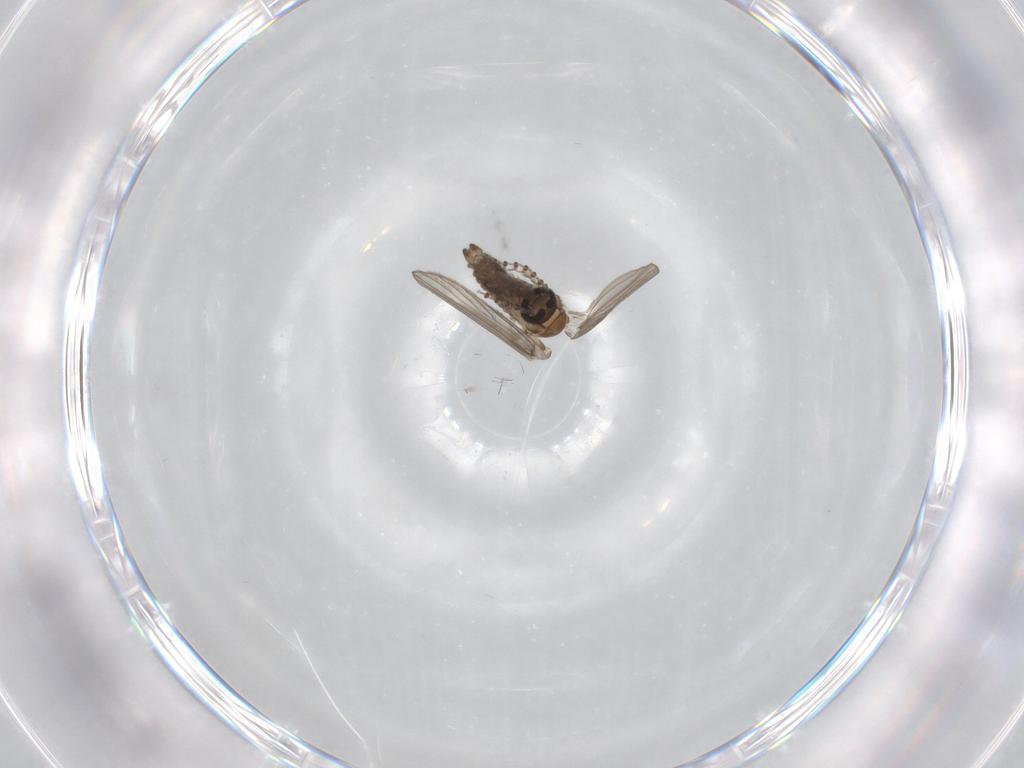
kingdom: Animalia
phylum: Arthropoda
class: Insecta
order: Diptera
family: Psychodidae
